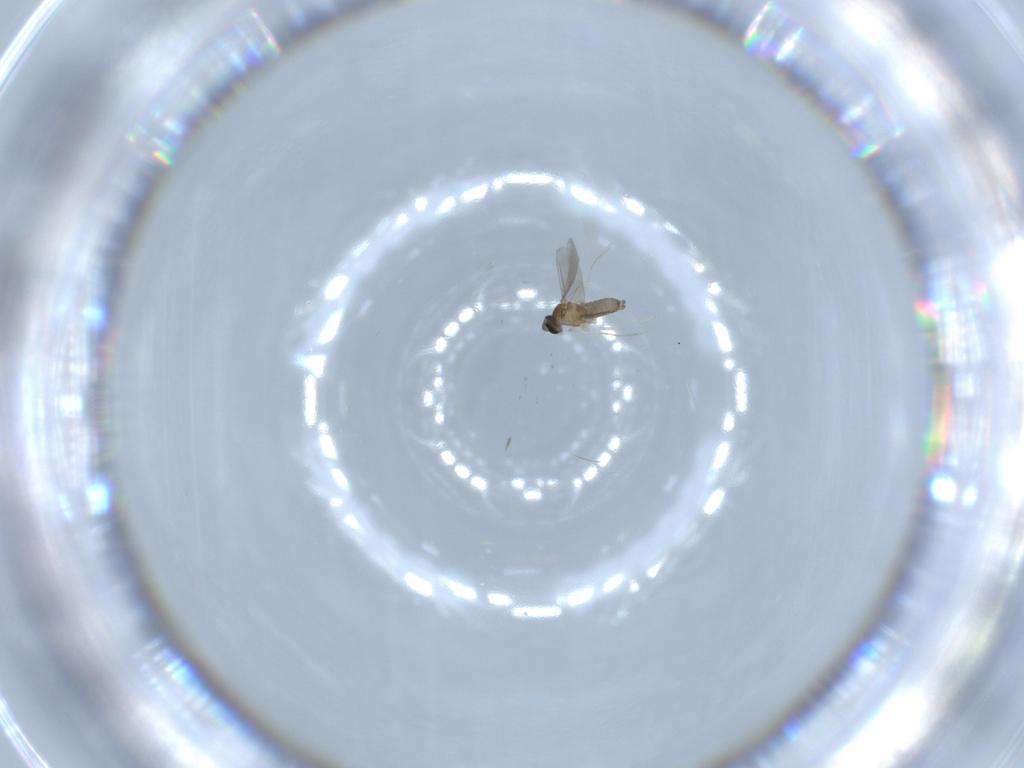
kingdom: Animalia
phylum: Arthropoda
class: Insecta
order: Diptera
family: Cecidomyiidae
